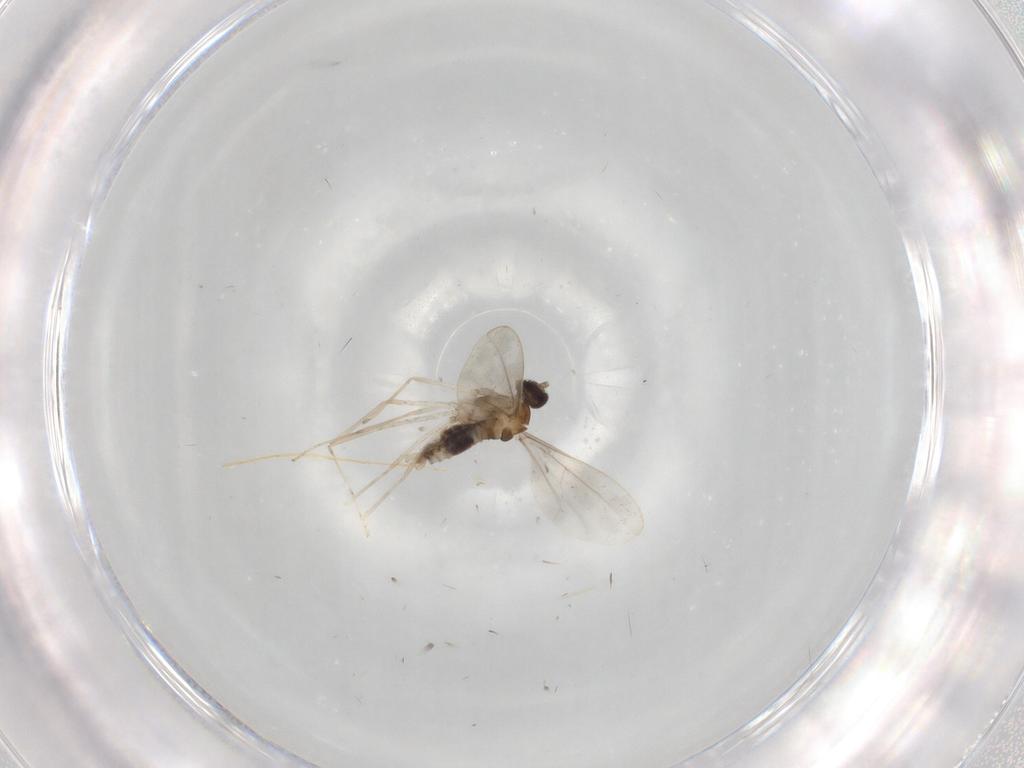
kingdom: Animalia
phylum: Arthropoda
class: Insecta
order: Diptera
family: Cecidomyiidae
